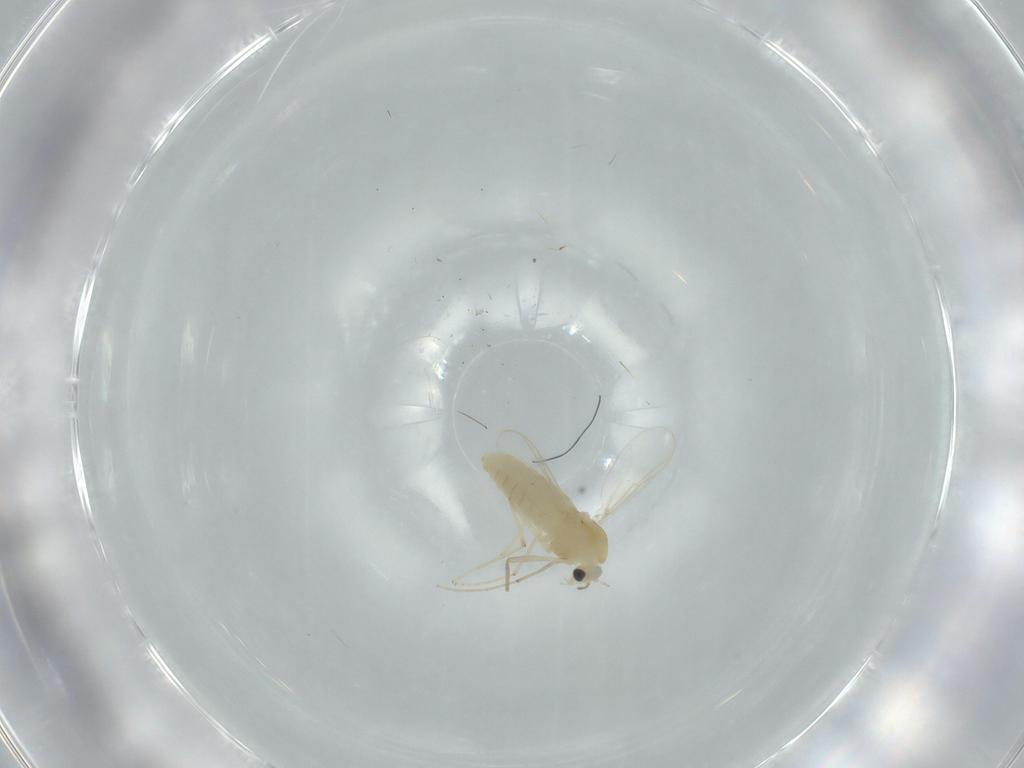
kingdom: Animalia
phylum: Arthropoda
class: Insecta
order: Diptera
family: Chironomidae
